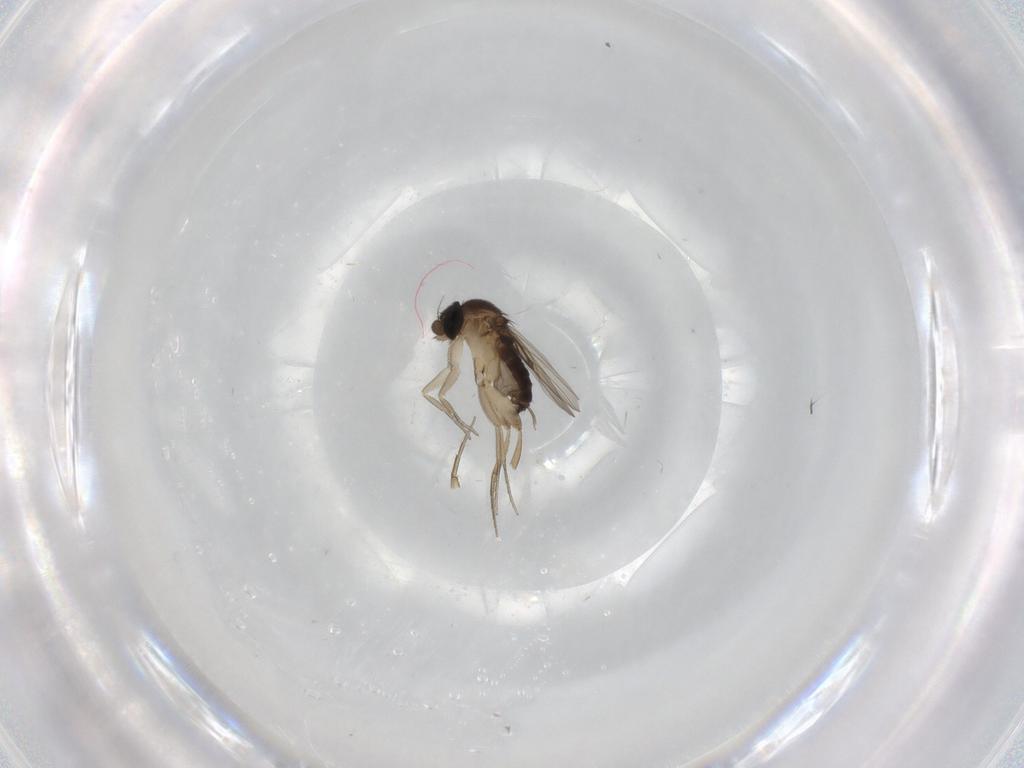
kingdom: Animalia
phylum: Arthropoda
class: Insecta
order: Diptera
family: Phoridae
